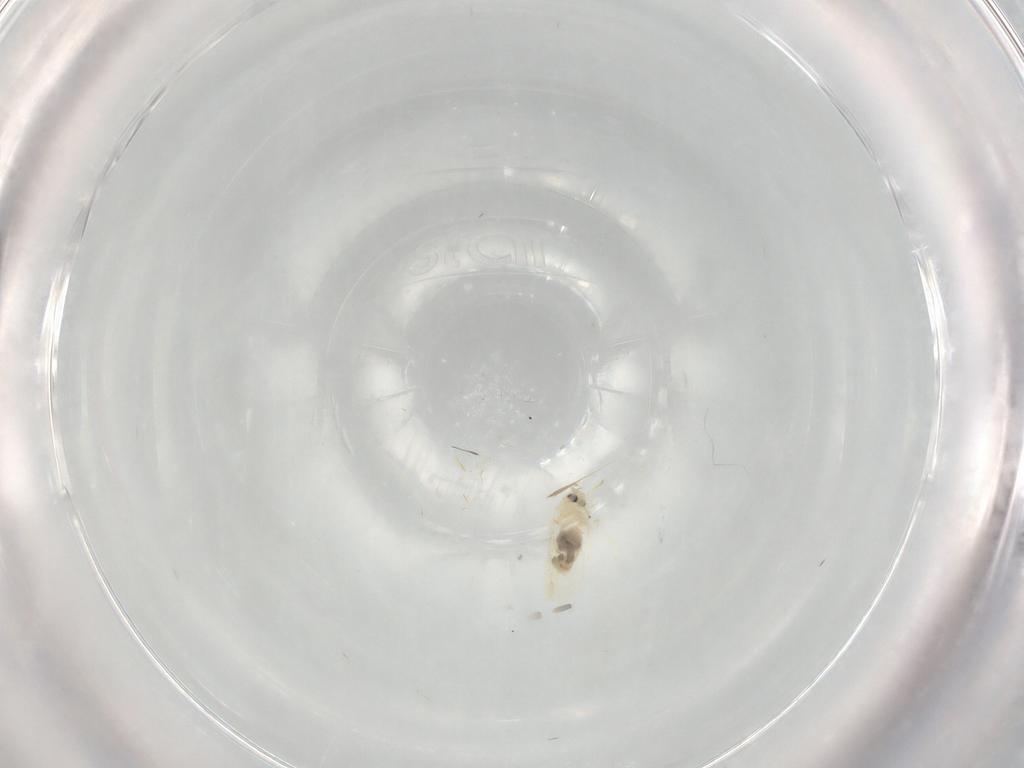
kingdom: Animalia
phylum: Arthropoda
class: Insecta
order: Hemiptera
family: Aleyrodidae
